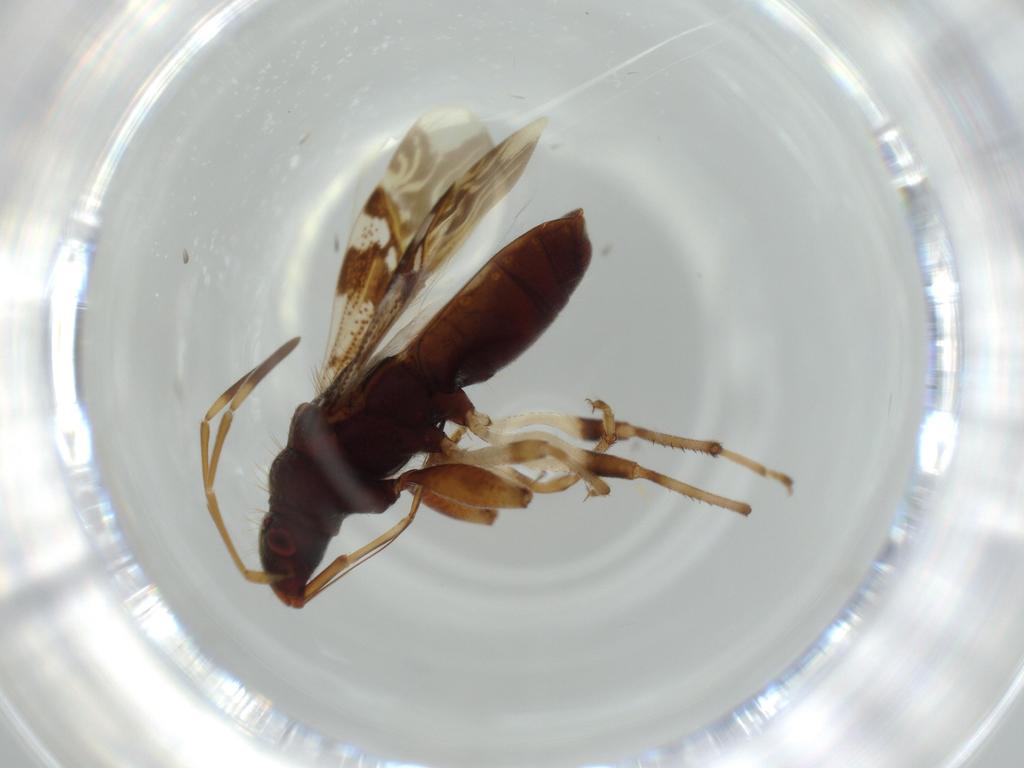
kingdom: Animalia
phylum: Arthropoda
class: Insecta
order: Hemiptera
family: Rhyparochromidae
